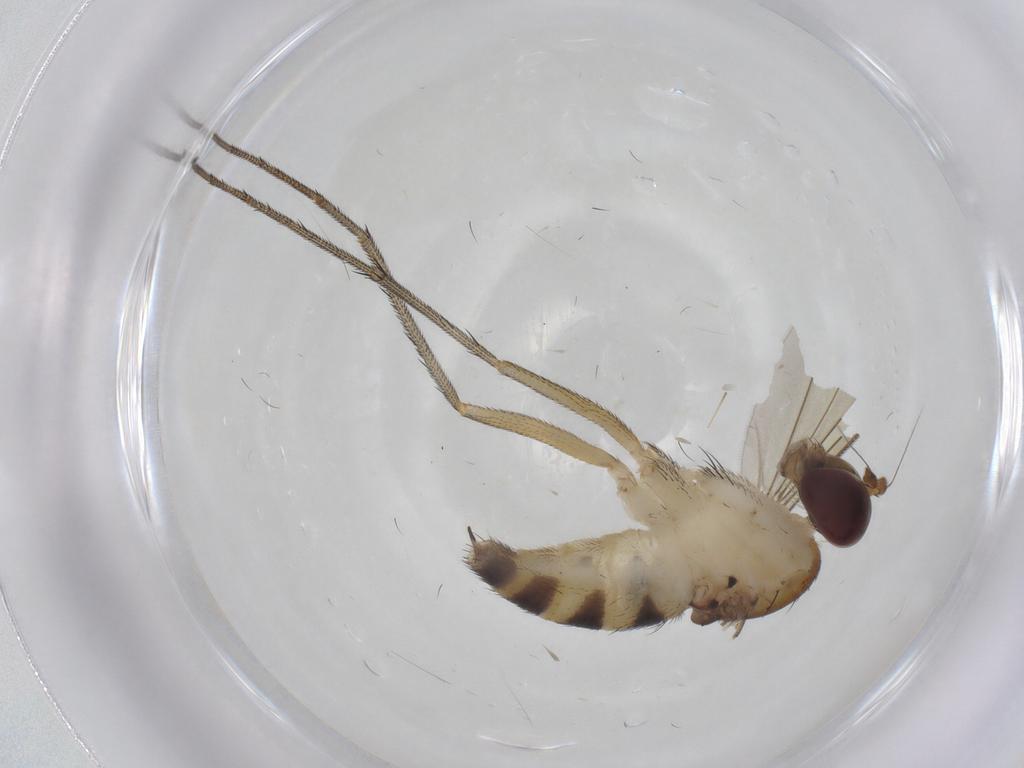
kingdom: Animalia
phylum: Arthropoda
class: Insecta
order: Diptera
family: Dolichopodidae
